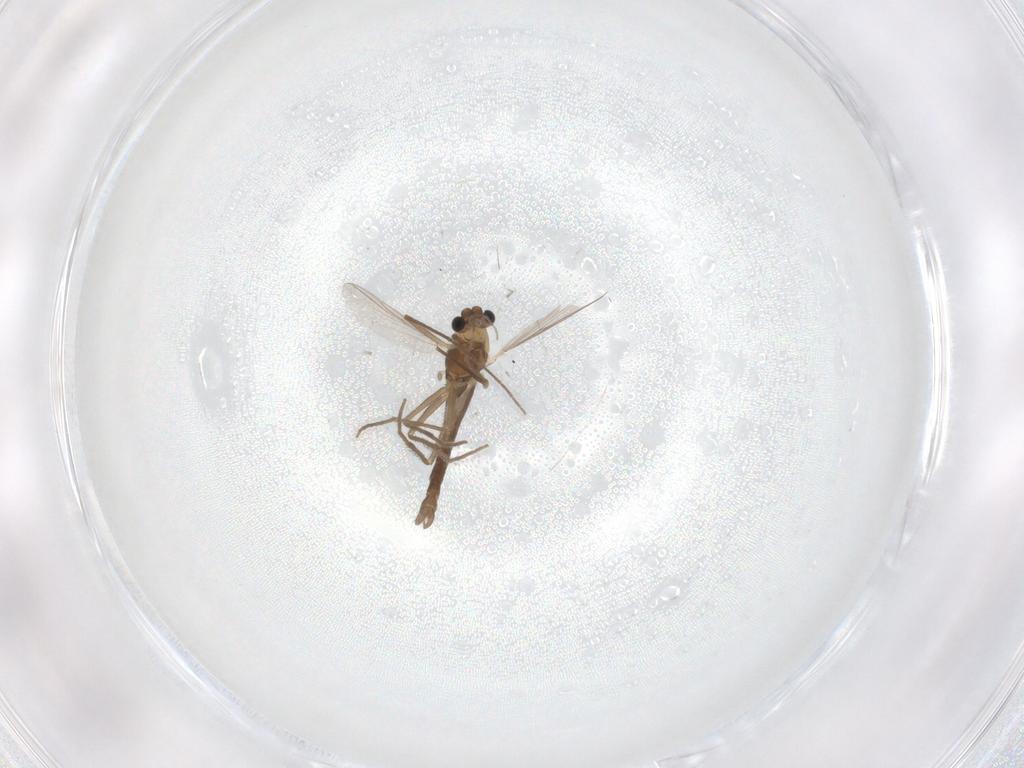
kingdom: Animalia
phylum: Arthropoda
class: Insecta
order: Diptera
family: Chironomidae
